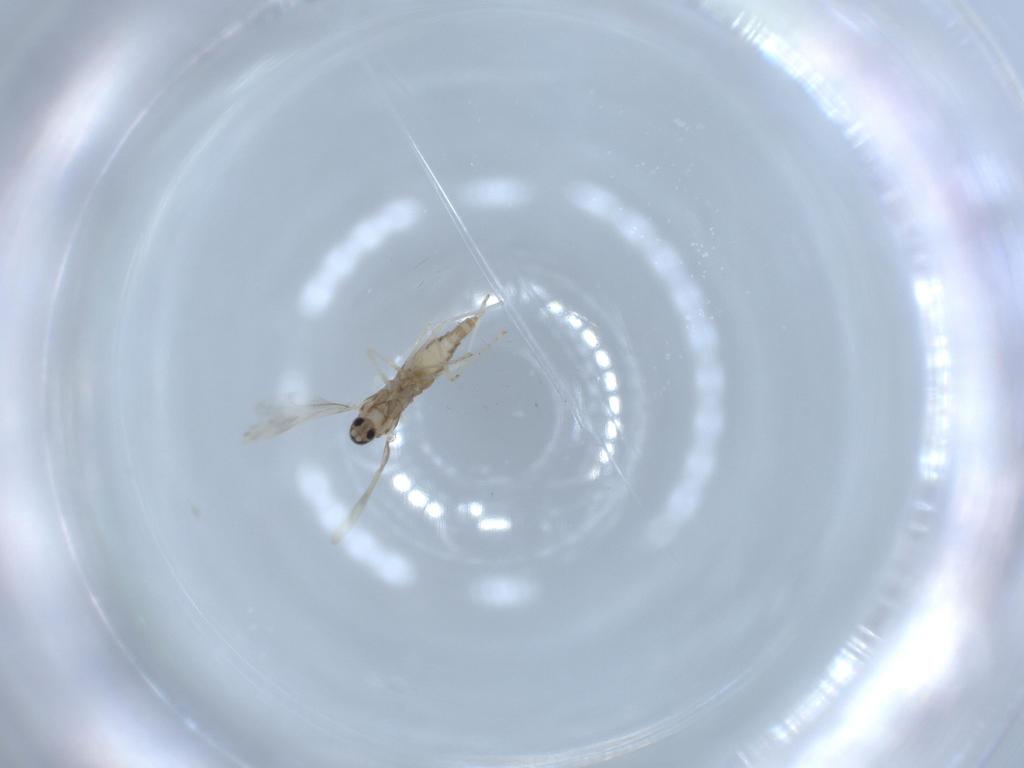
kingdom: Animalia
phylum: Arthropoda
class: Insecta
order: Diptera
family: Cecidomyiidae
